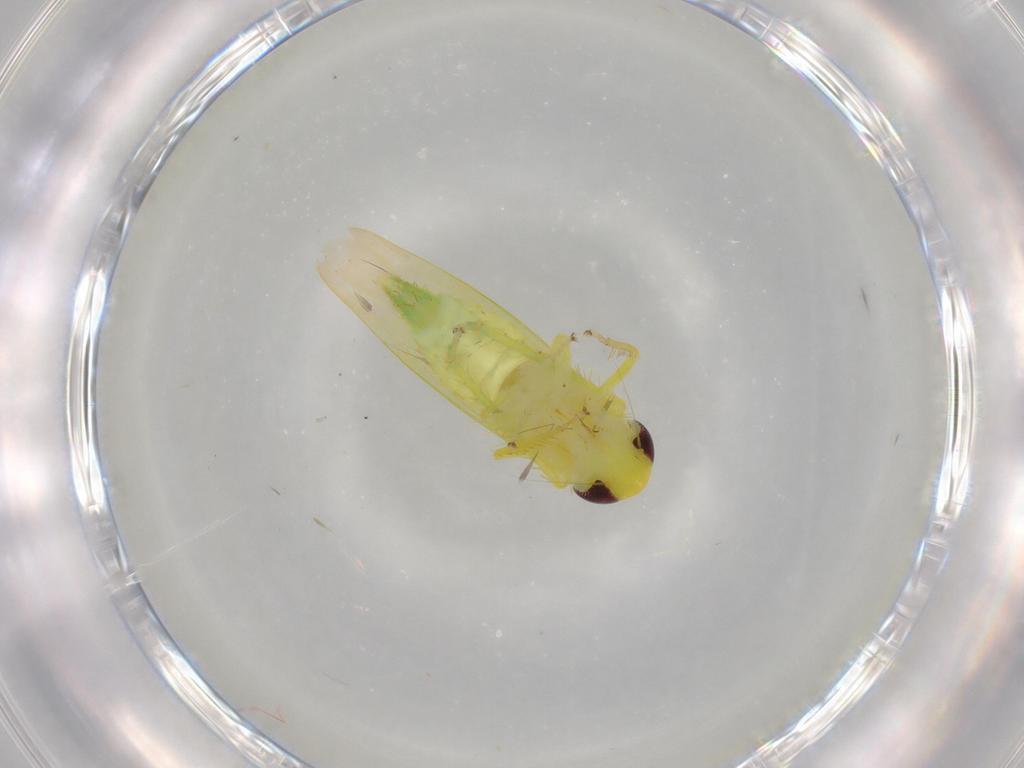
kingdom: Animalia
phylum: Arthropoda
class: Insecta
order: Hemiptera
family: Cicadellidae
